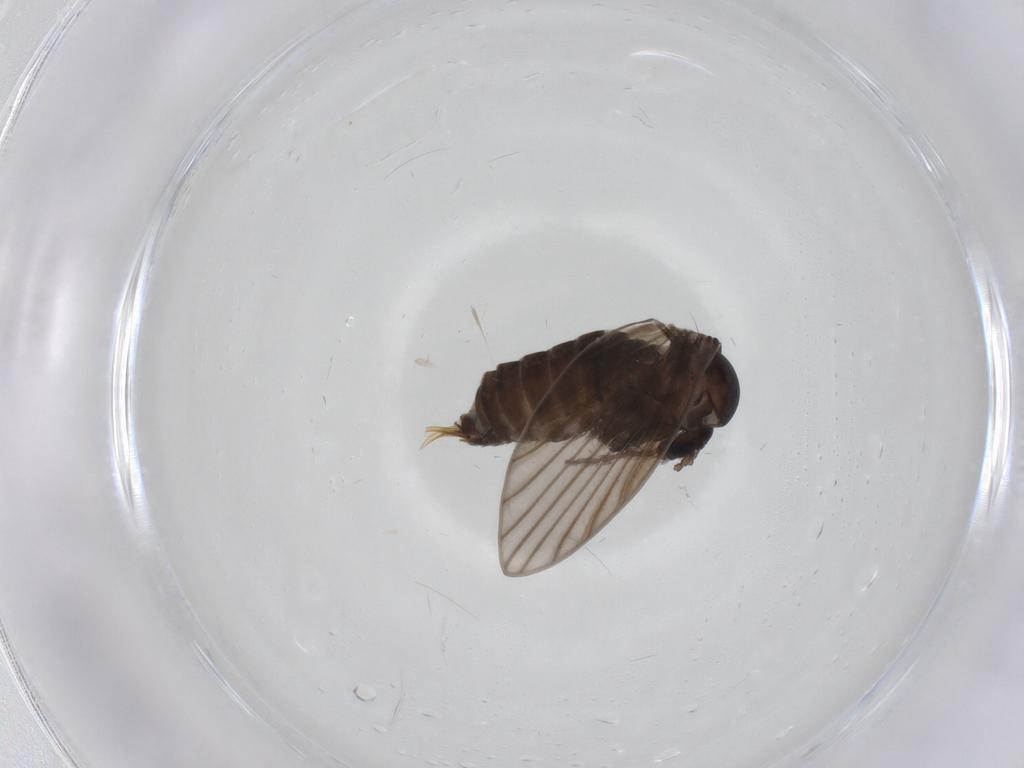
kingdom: Animalia
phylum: Arthropoda
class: Insecta
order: Diptera
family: Psychodidae
